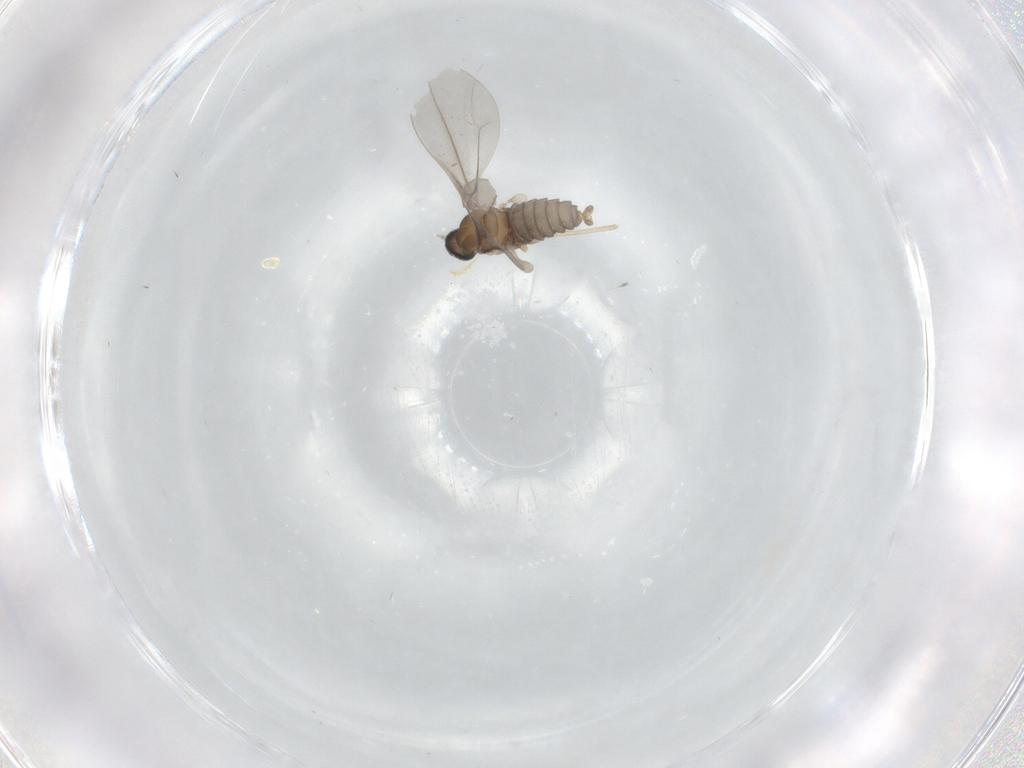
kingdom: Animalia
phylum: Arthropoda
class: Insecta
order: Diptera
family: Cecidomyiidae
